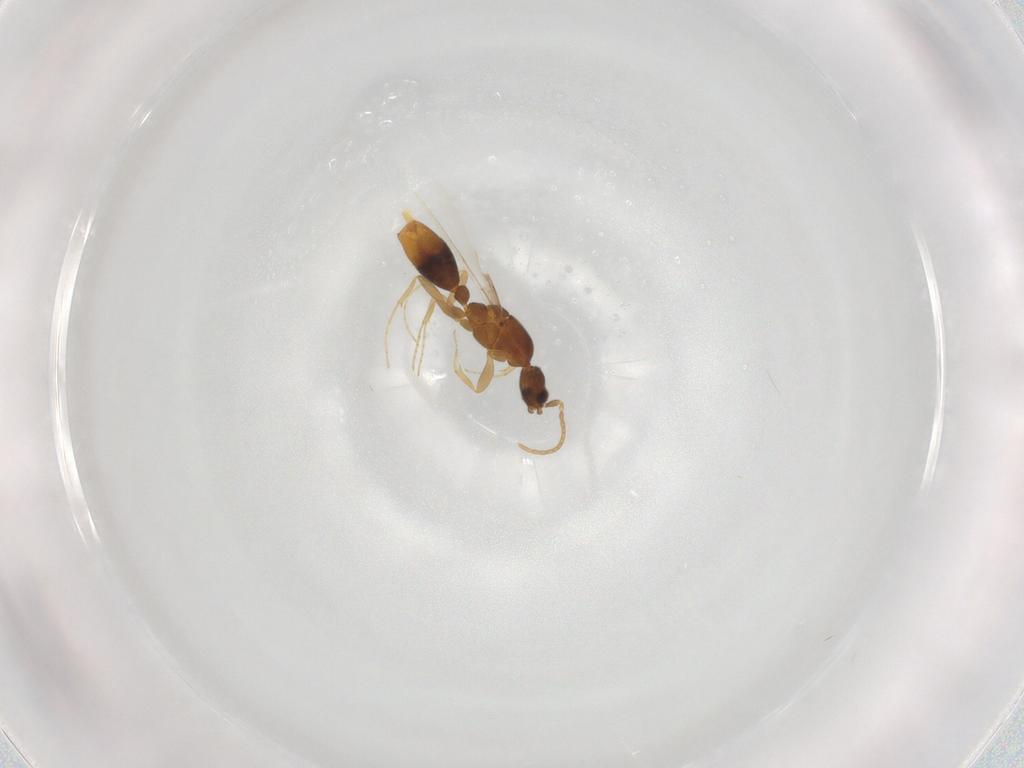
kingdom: Animalia
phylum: Arthropoda
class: Insecta
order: Hymenoptera
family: Formicidae
